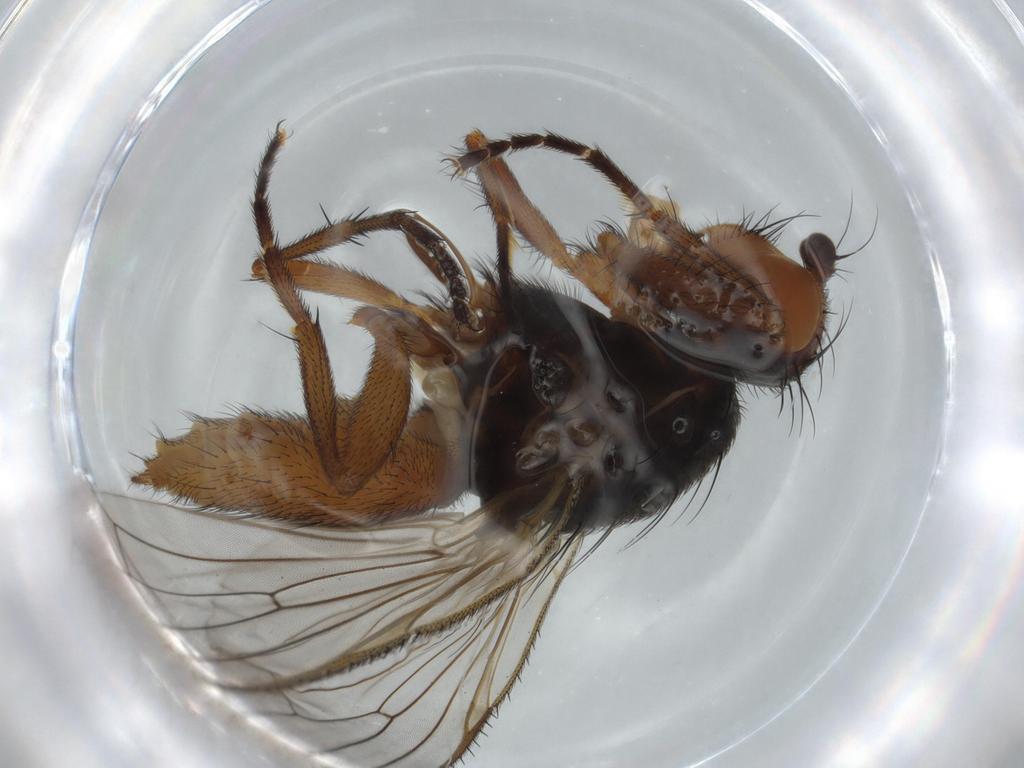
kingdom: Animalia
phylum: Arthropoda
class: Insecta
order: Diptera
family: Heleomyzidae
